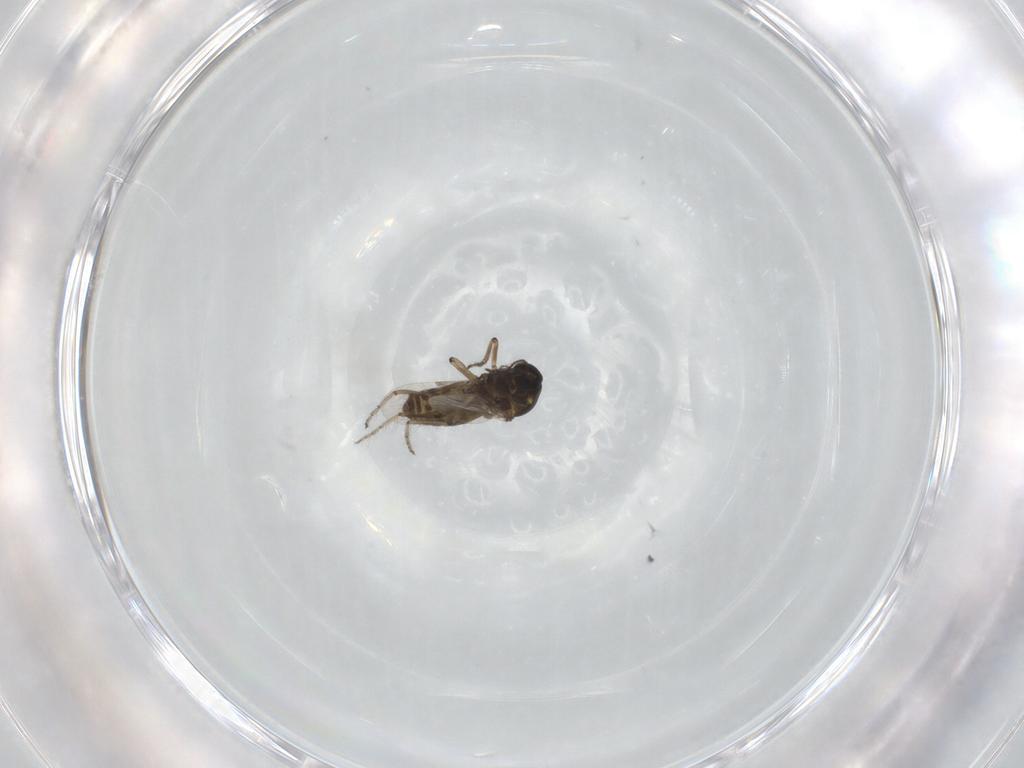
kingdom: Animalia
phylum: Arthropoda
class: Insecta
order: Diptera
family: Ceratopogonidae
